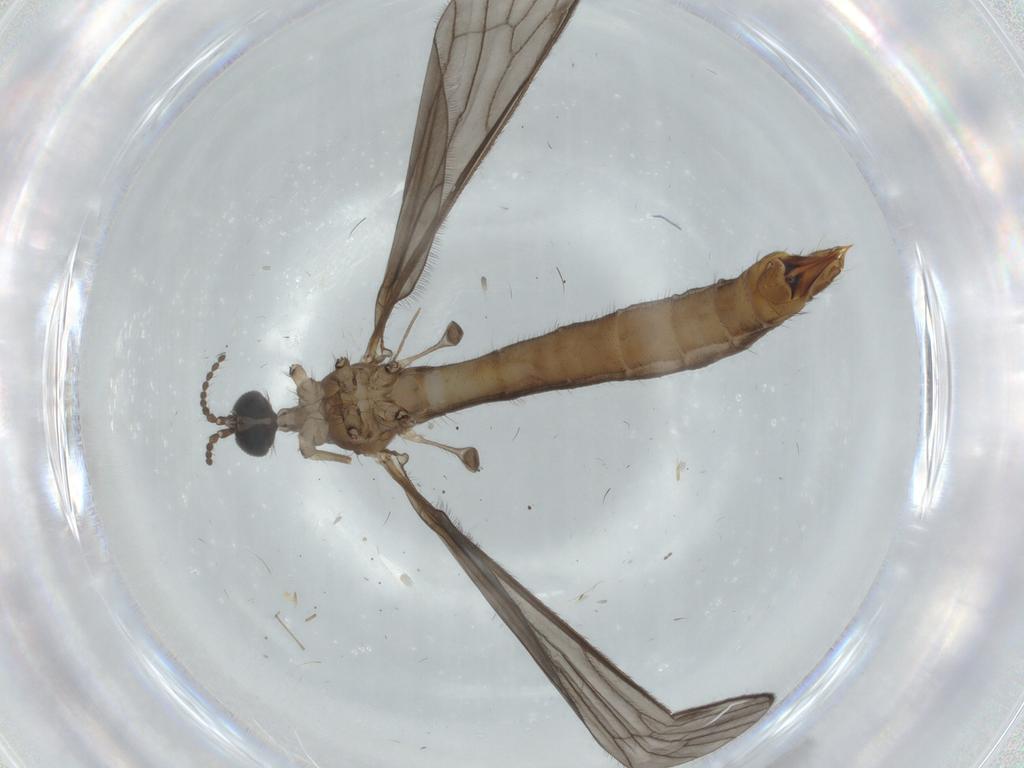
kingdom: Animalia
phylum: Arthropoda
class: Insecta
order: Diptera
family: Limoniidae
